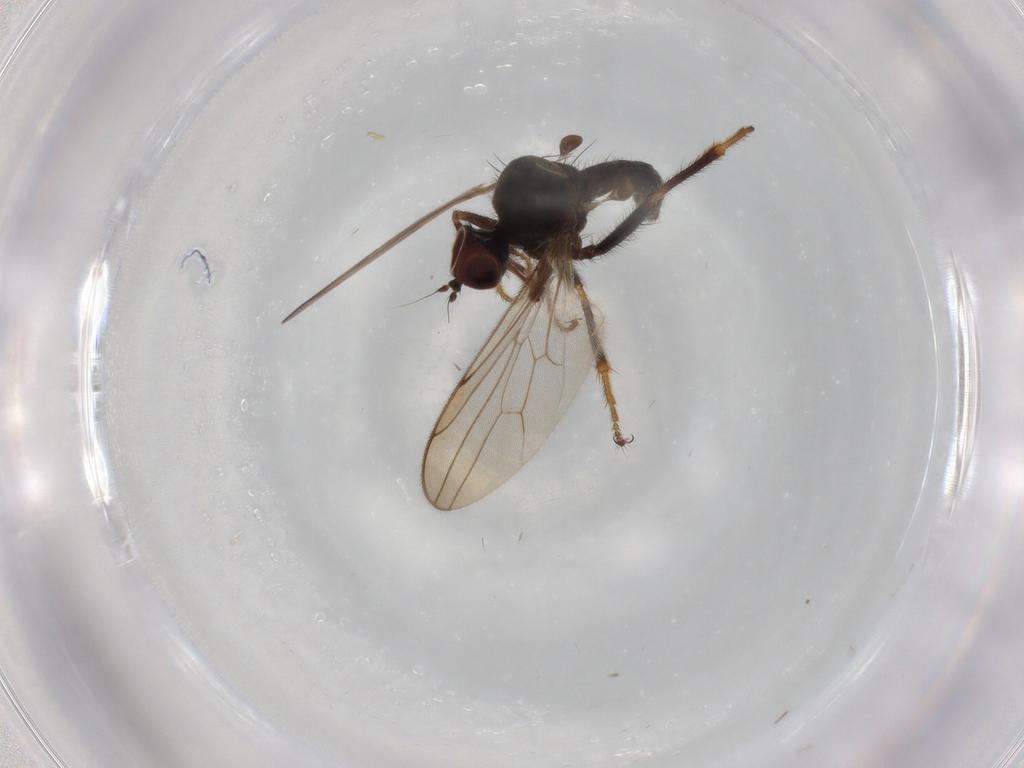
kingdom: Animalia
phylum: Arthropoda
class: Insecta
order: Diptera
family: Hybotidae
